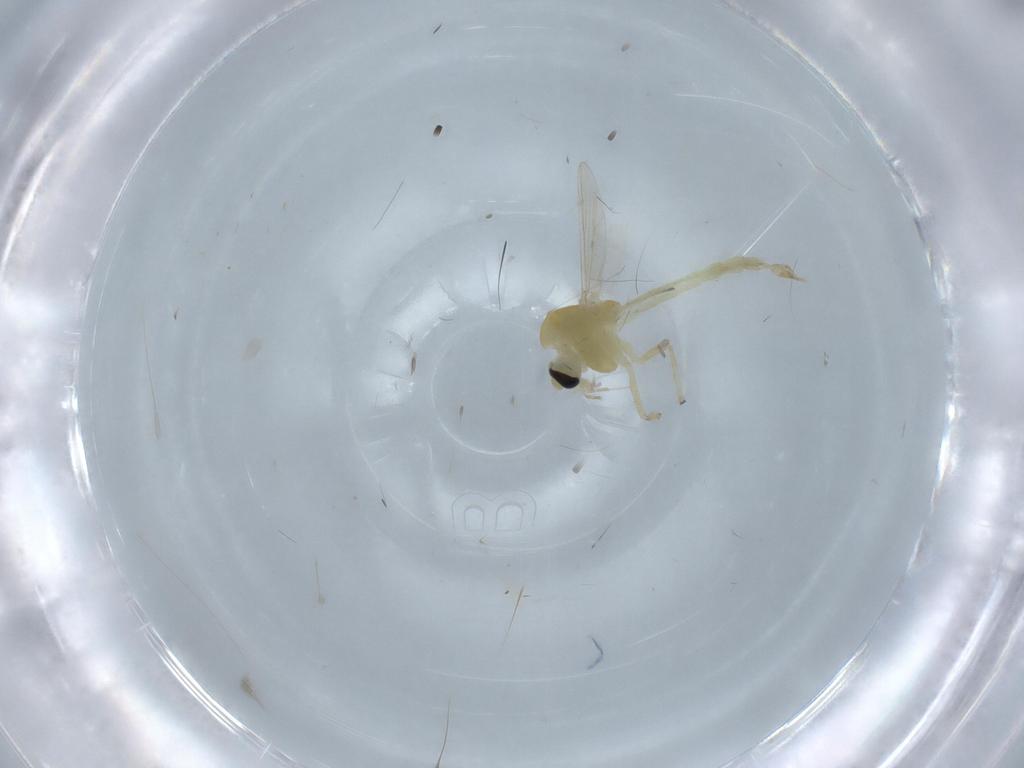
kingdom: Animalia
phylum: Arthropoda
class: Insecta
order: Diptera
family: Chironomidae
